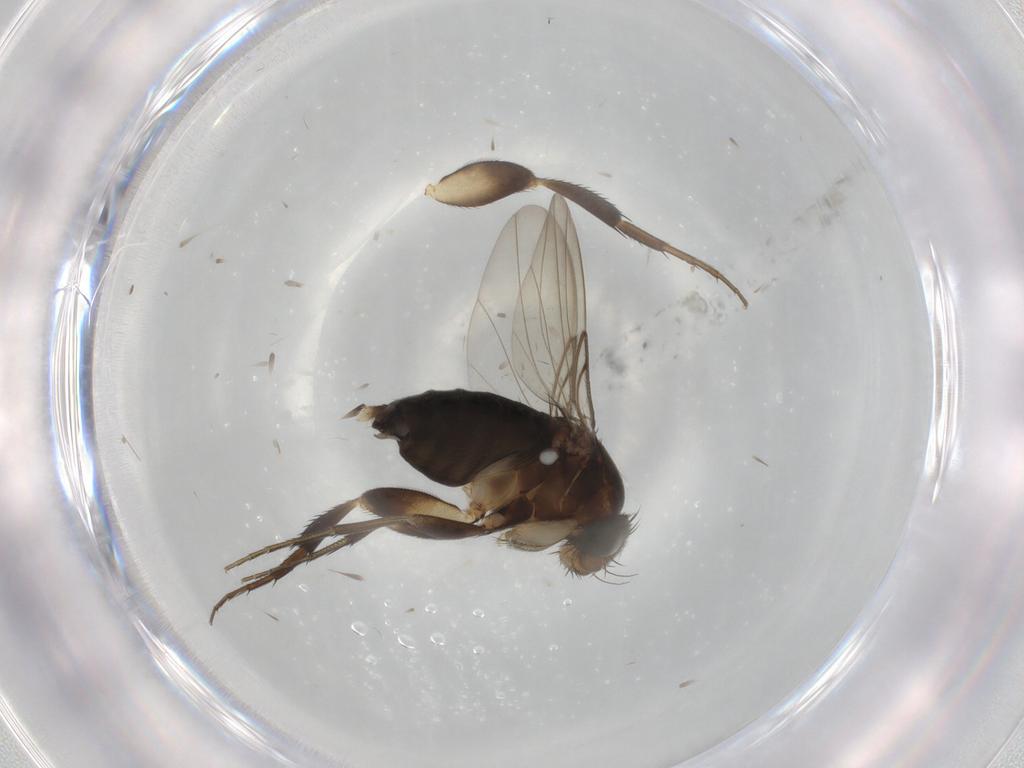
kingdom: Animalia
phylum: Arthropoda
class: Insecta
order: Diptera
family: Phoridae
